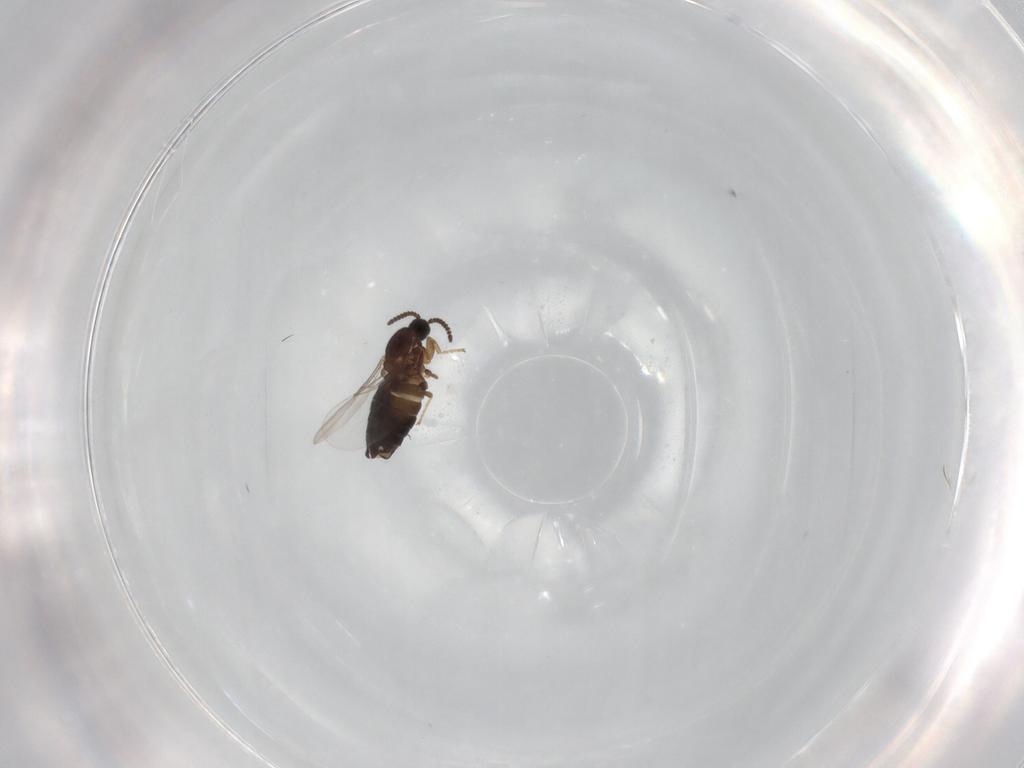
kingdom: Animalia
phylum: Arthropoda
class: Insecta
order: Diptera
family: Scatopsidae
